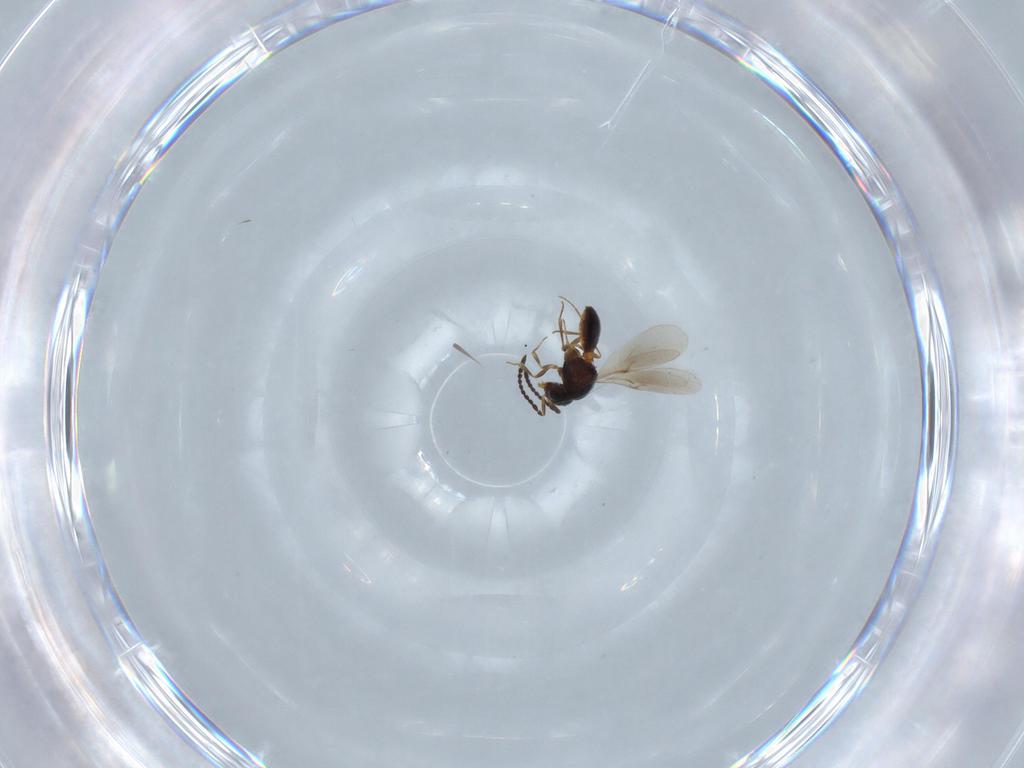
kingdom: Animalia
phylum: Arthropoda
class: Insecta
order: Hymenoptera
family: Scelionidae
